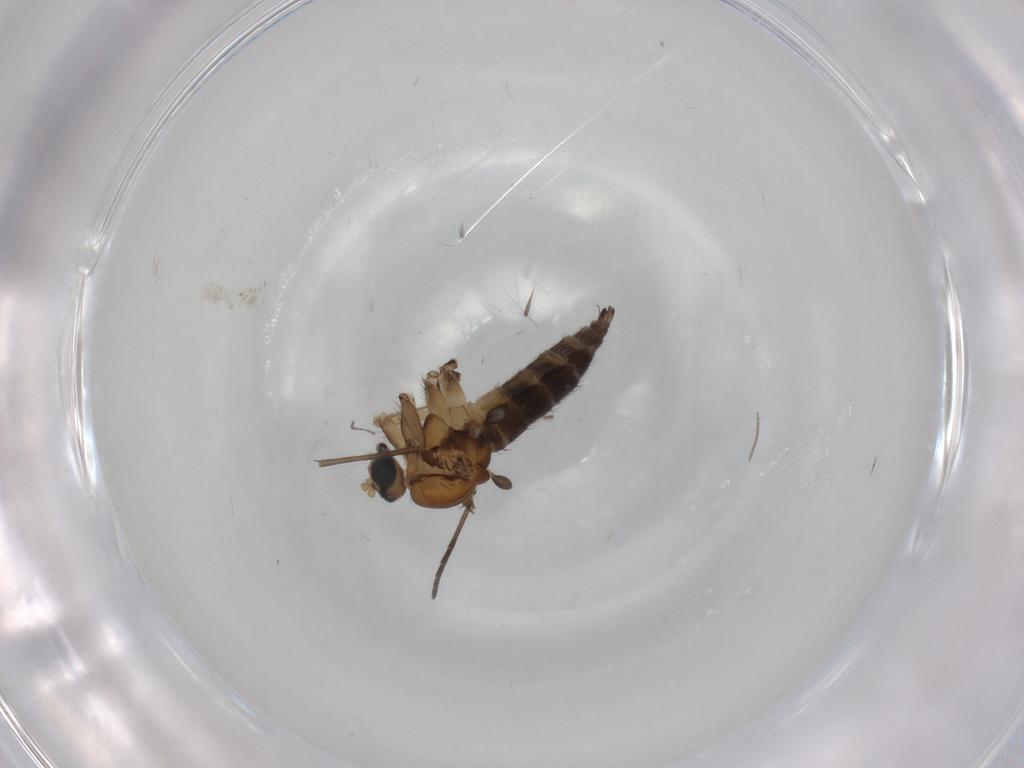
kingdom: Animalia
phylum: Arthropoda
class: Insecta
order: Diptera
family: Sciaridae
